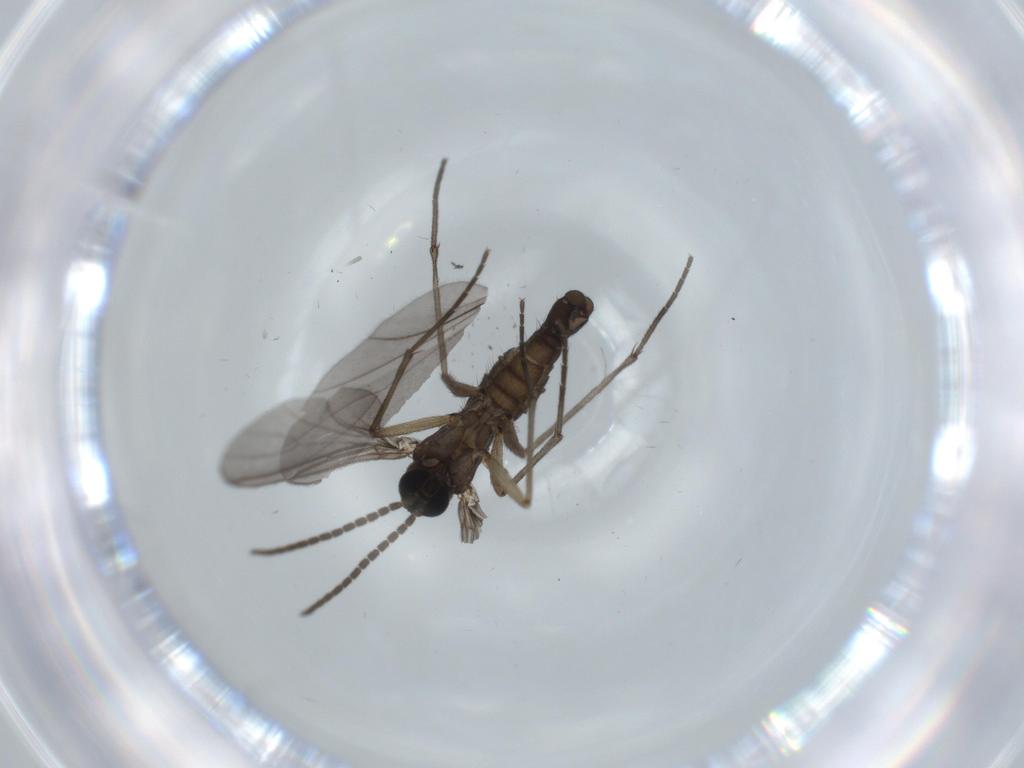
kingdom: Animalia
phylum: Arthropoda
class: Insecta
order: Diptera
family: Sciaridae
